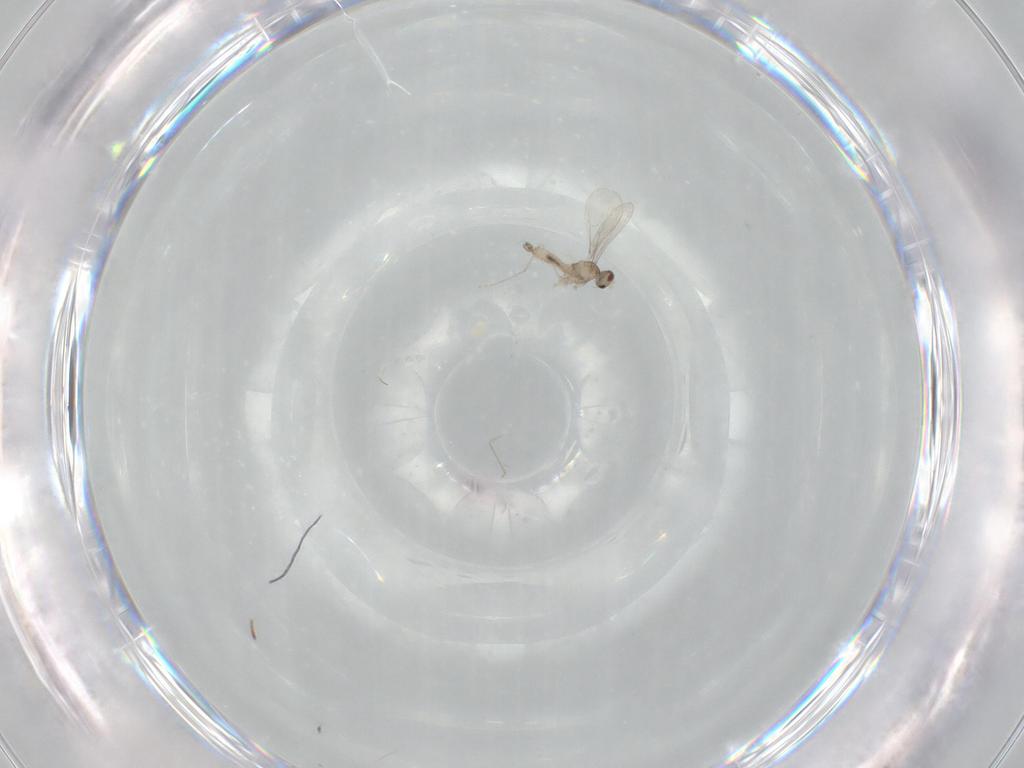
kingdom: Animalia
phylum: Arthropoda
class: Insecta
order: Diptera
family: Cecidomyiidae
